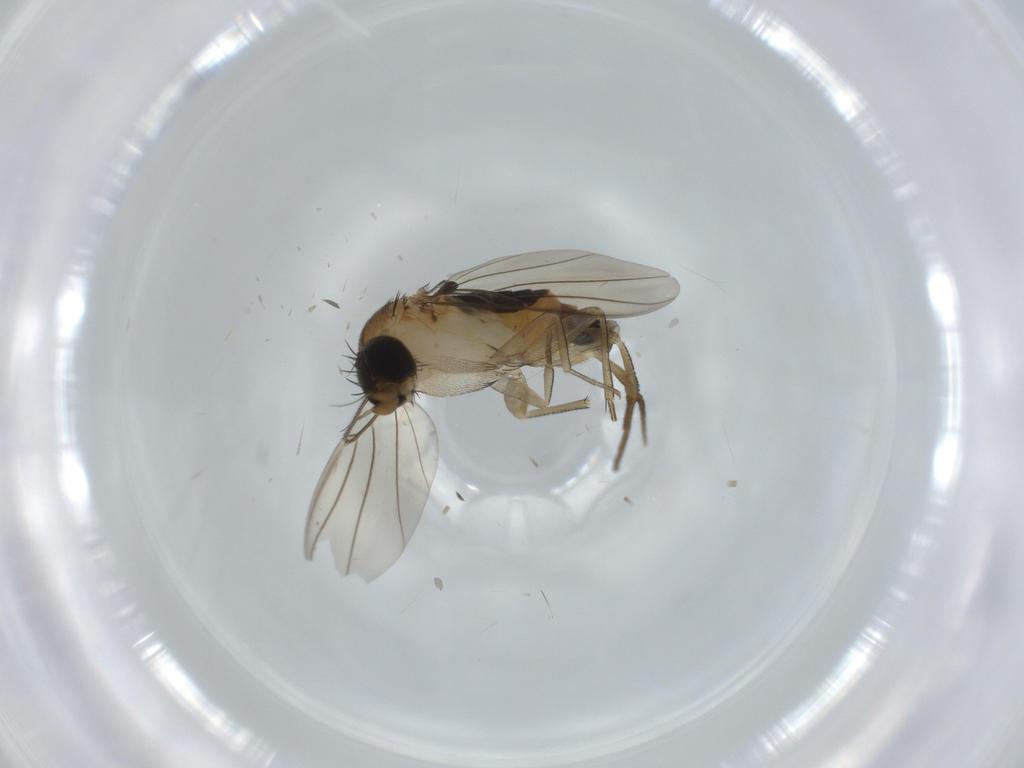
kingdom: Animalia
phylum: Arthropoda
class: Insecta
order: Diptera
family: Phoridae
